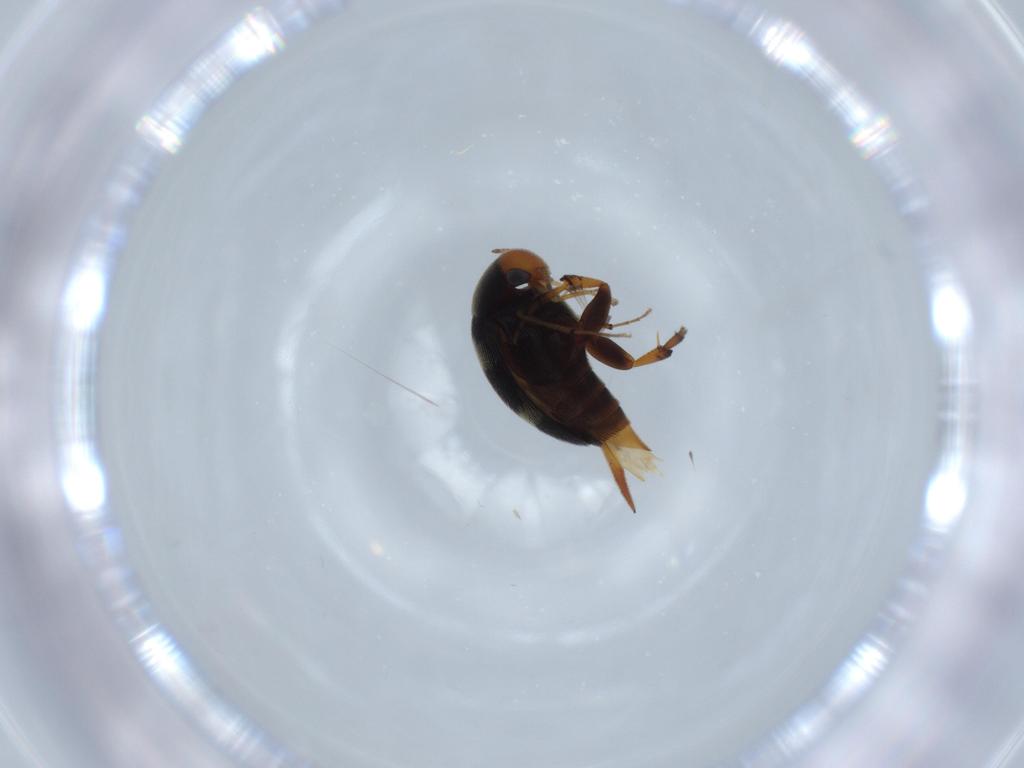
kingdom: Animalia
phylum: Arthropoda
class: Insecta
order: Coleoptera
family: Mordellidae
